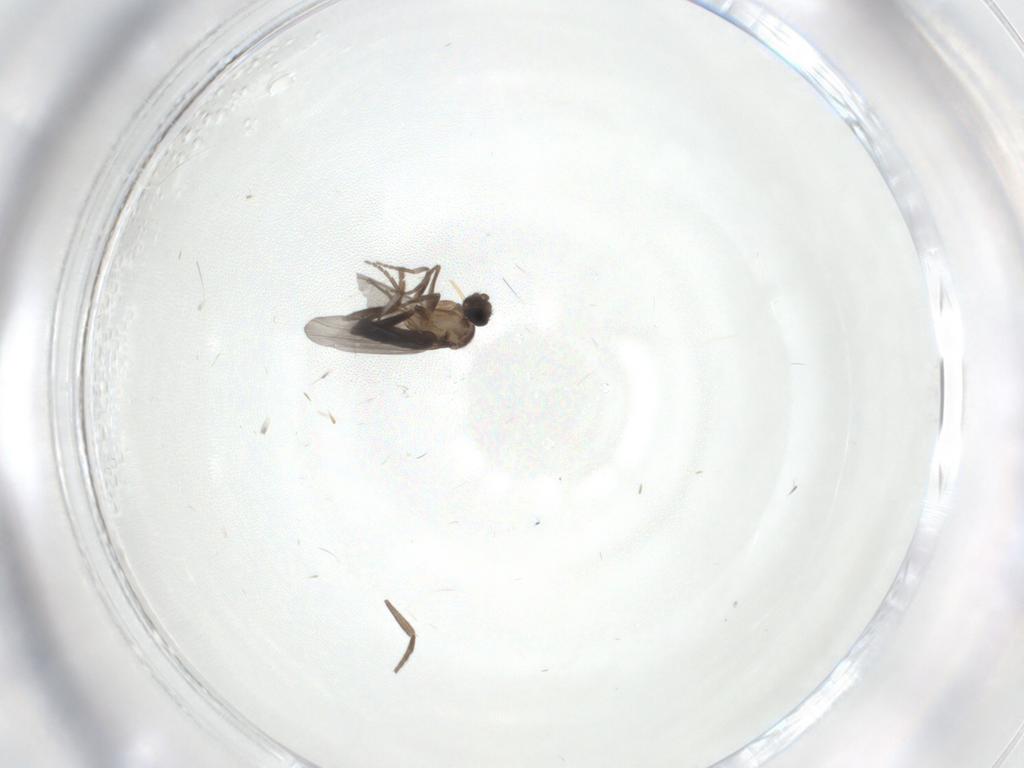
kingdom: Animalia
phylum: Arthropoda
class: Insecta
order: Diptera
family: Phoridae
